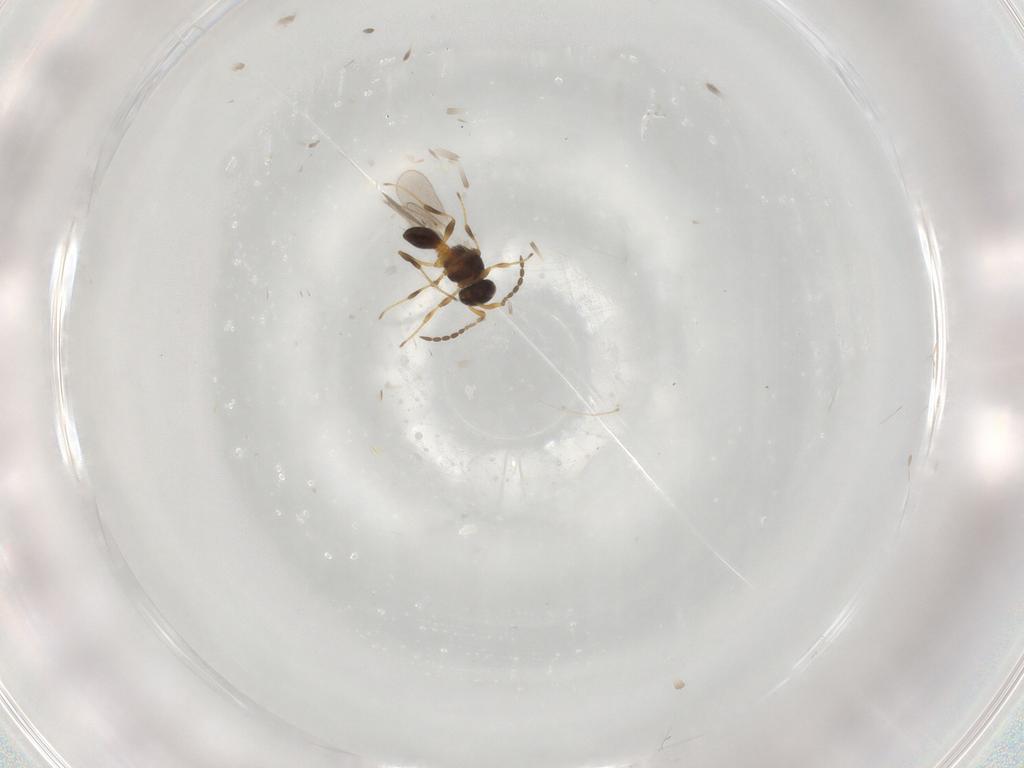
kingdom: Animalia
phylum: Arthropoda
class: Insecta
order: Hymenoptera
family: Platygastridae
